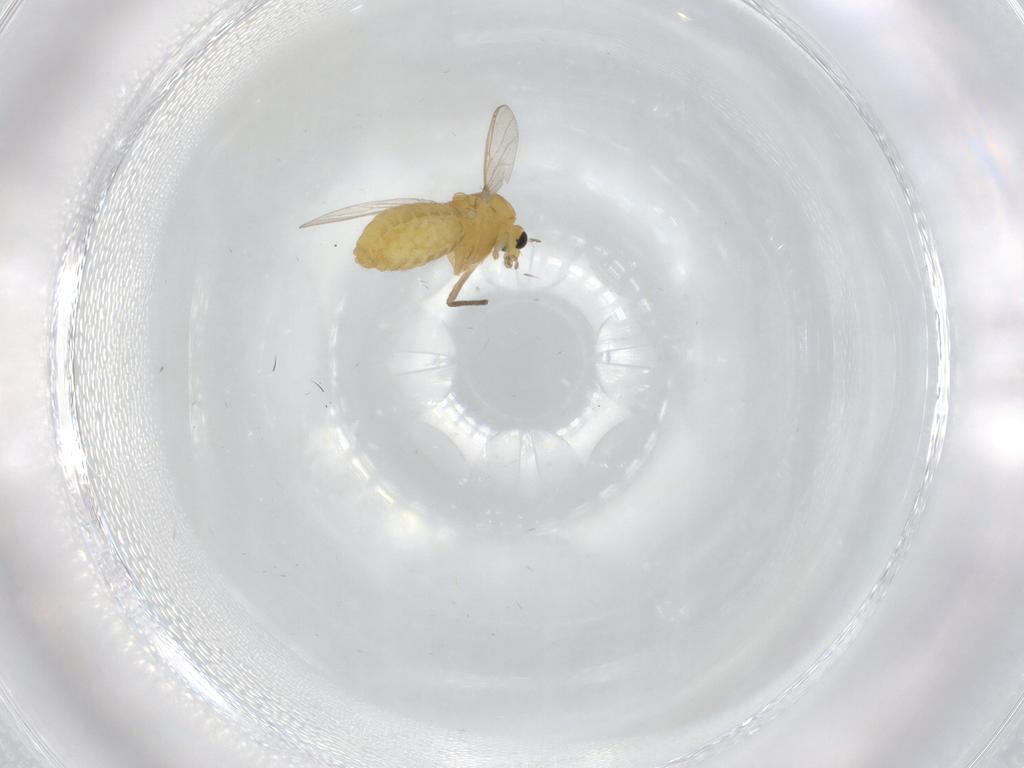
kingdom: Animalia
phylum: Arthropoda
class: Insecta
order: Diptera
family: Chironomidae
